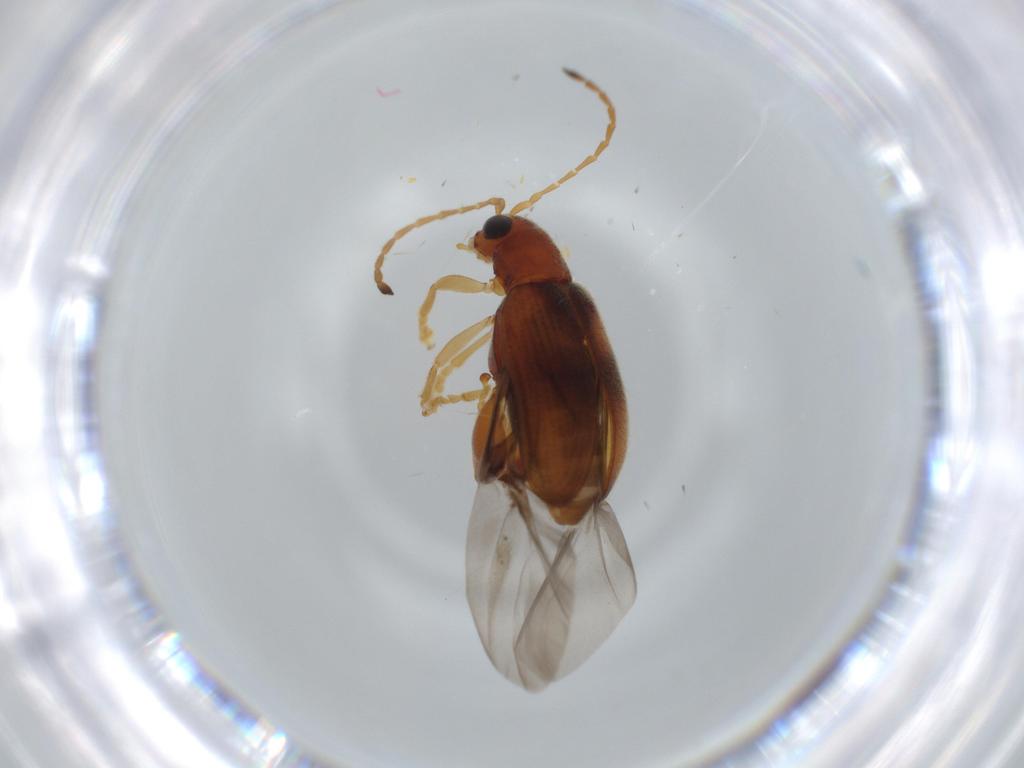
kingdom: Animalia
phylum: Arthropoda
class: Insecta
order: Coleoptera
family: Chrysomelidae
